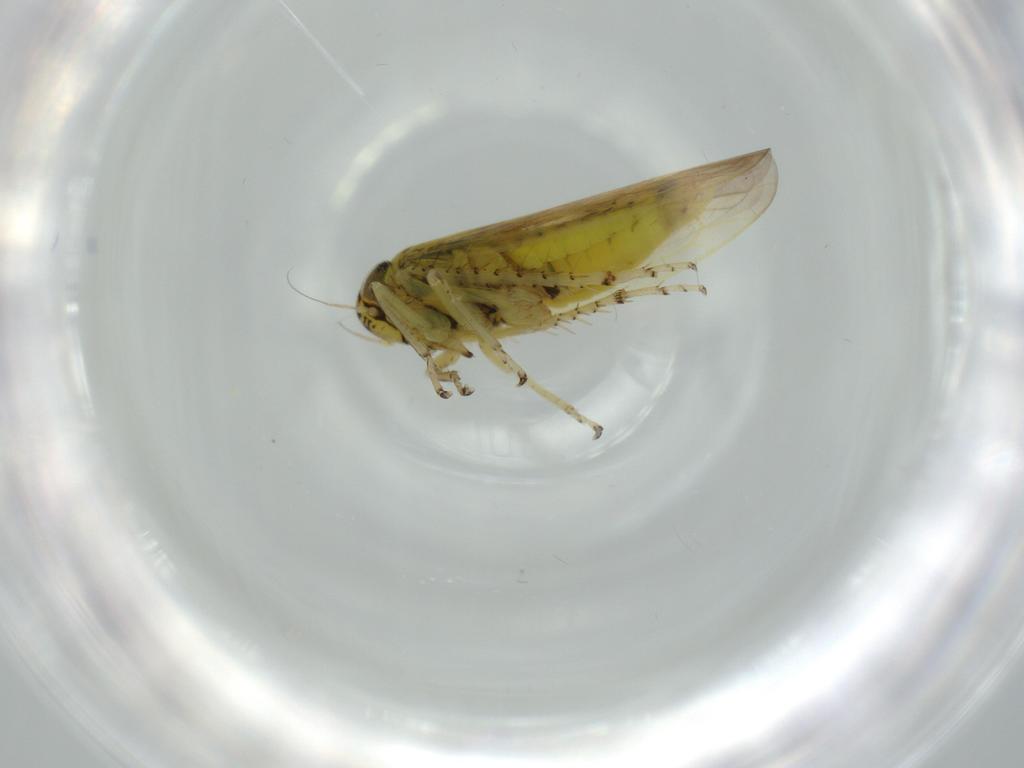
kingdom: Animalia
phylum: Arthropoda
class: Insecta
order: Hemiptera
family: Cicadellidae
